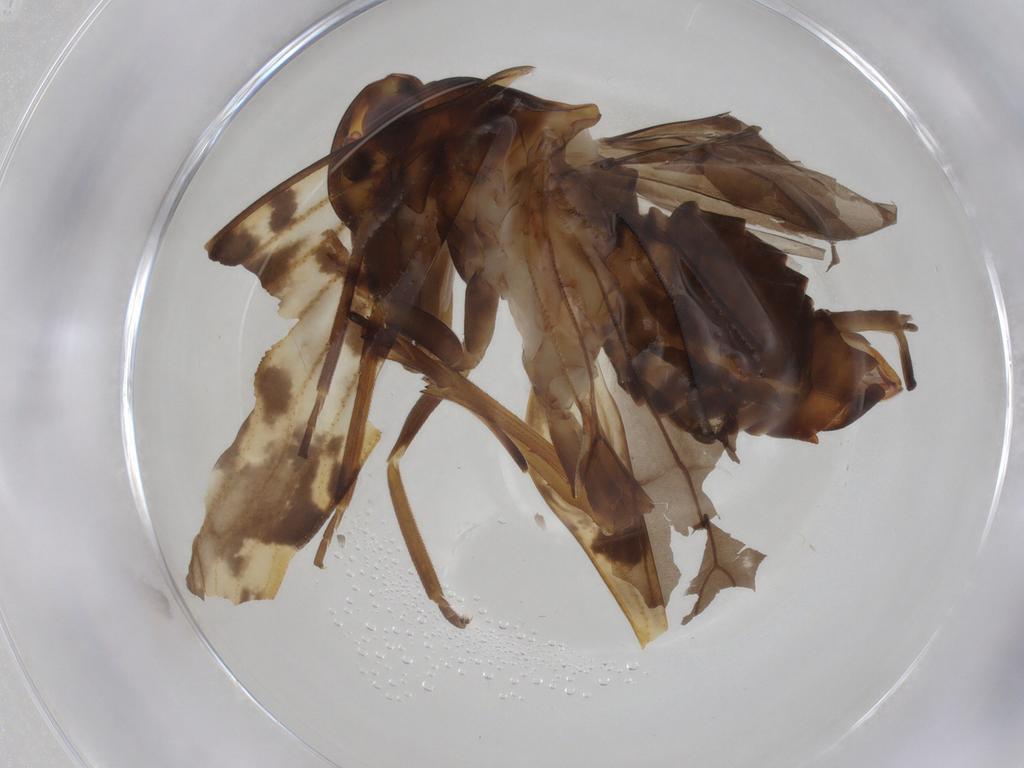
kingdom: Animalia
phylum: Arthropoda
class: Insecta
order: Hemiptera
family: Cixiidae
